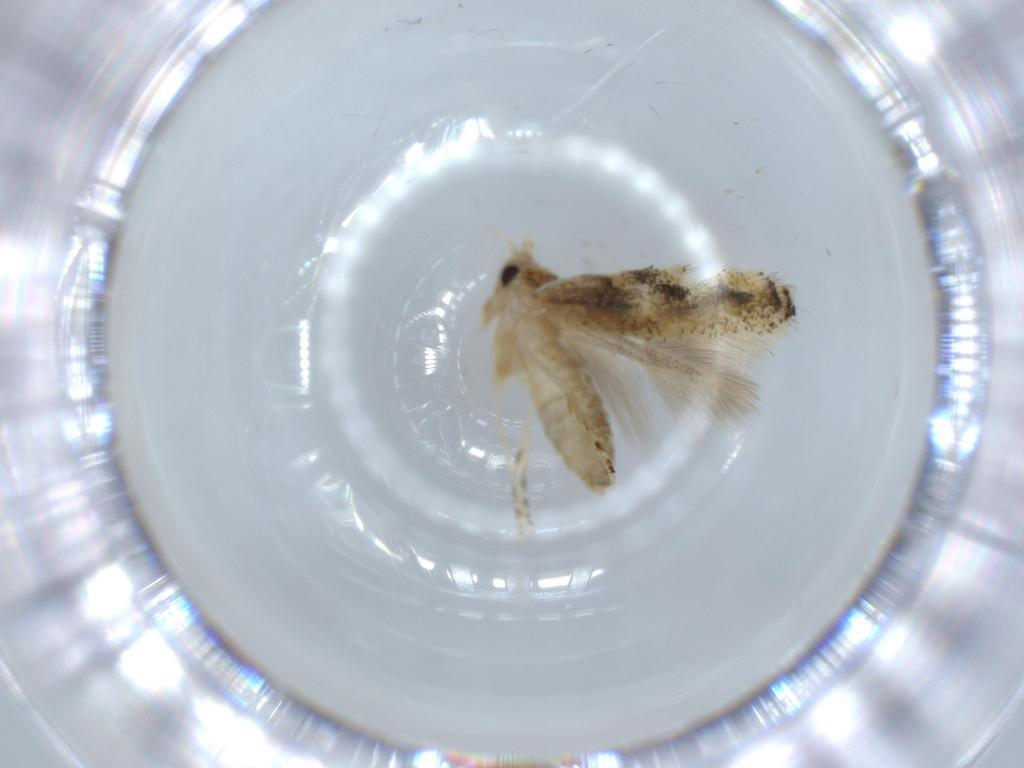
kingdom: Animalia
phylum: Arthropoda
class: Insecta
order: Lepidoptera
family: Bucculatricidae
